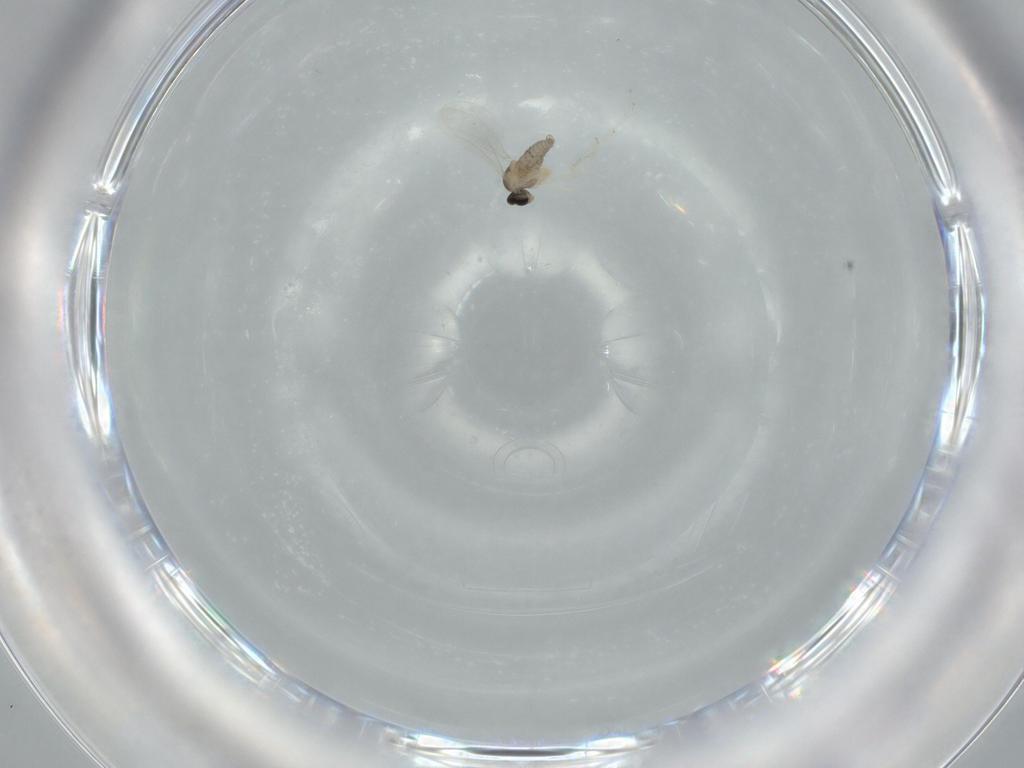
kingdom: Animalia
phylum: Arthropoda
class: Insecta
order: Diptera
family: Cecidomyiidae
